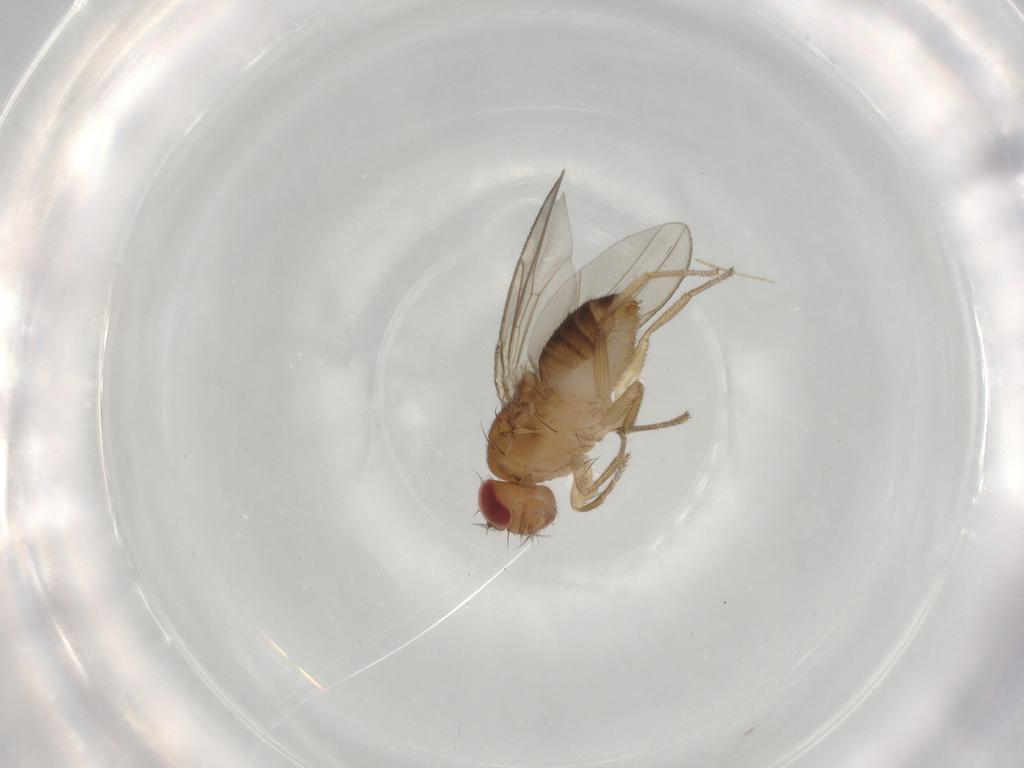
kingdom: Animalia
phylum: Arthropoda
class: Insecta
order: Diptera
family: Drosophilidae
